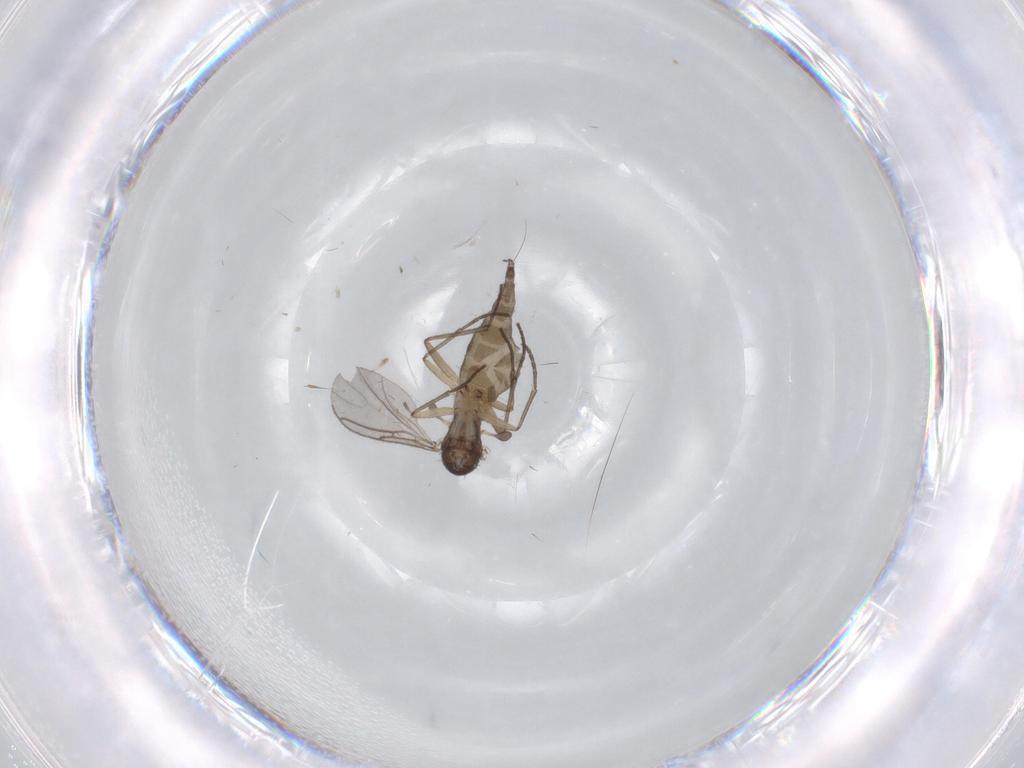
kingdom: Animalia
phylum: Arthropoda
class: Insecta
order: Diptera
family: Sciaridae
